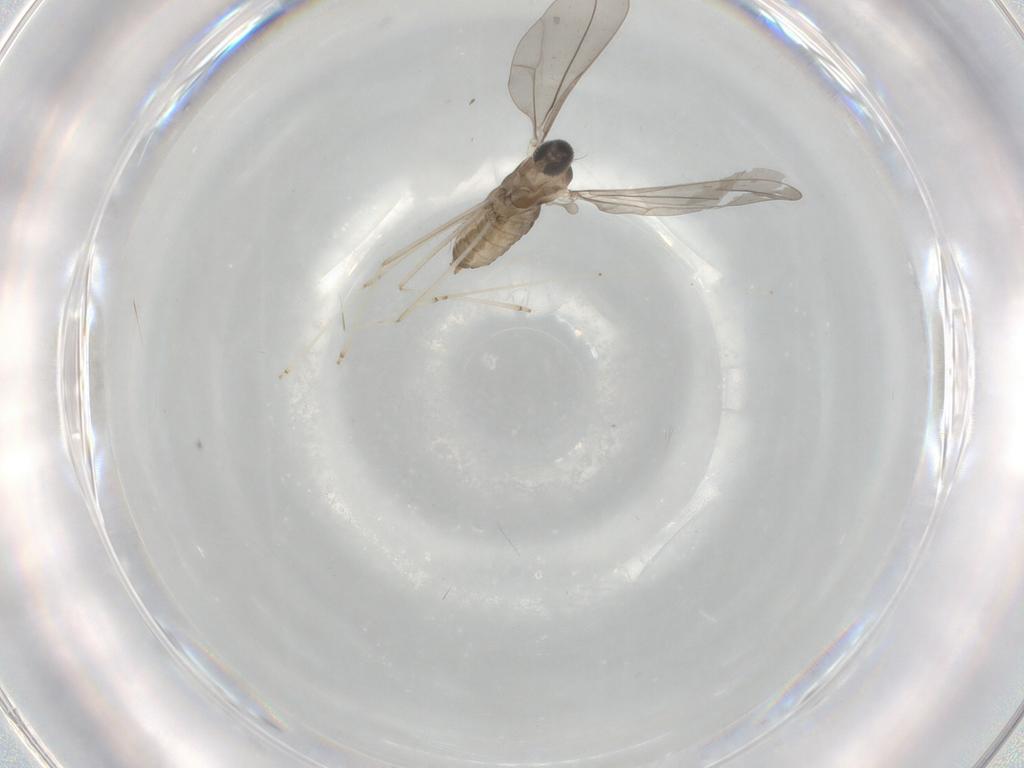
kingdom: Animalia
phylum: Arthropoda
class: Insecta
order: Diptera
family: Cecidomyiidae
